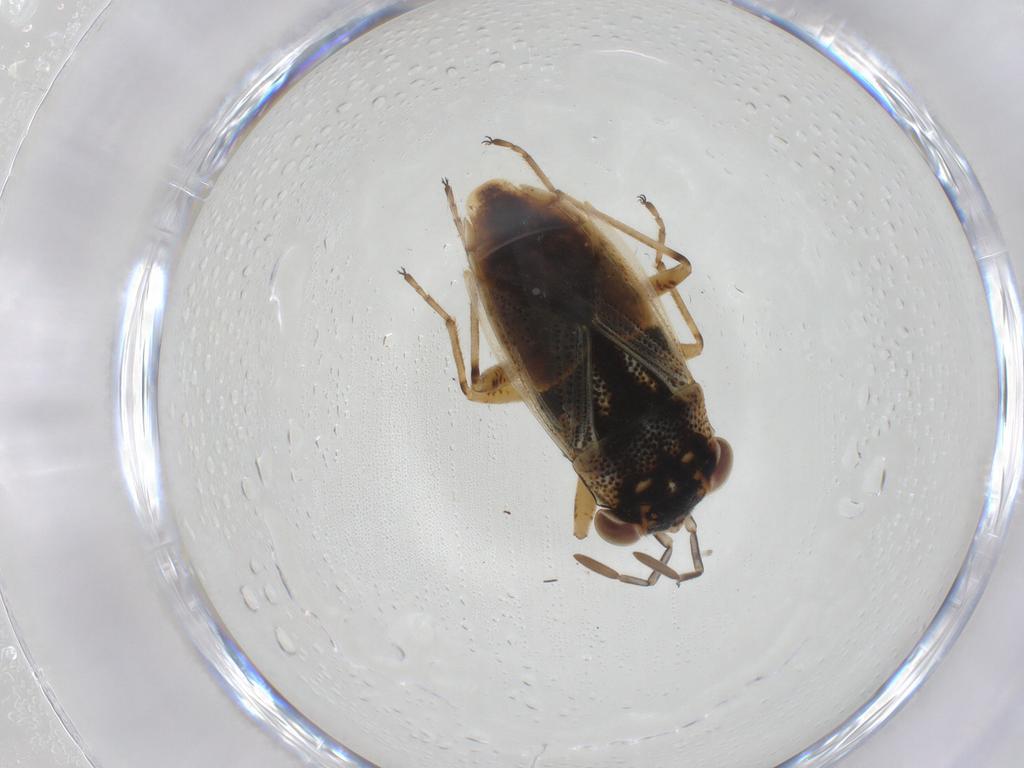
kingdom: Animalia
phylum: Arthropoda
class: Insecta
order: Hemiptera
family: Geocoridae
